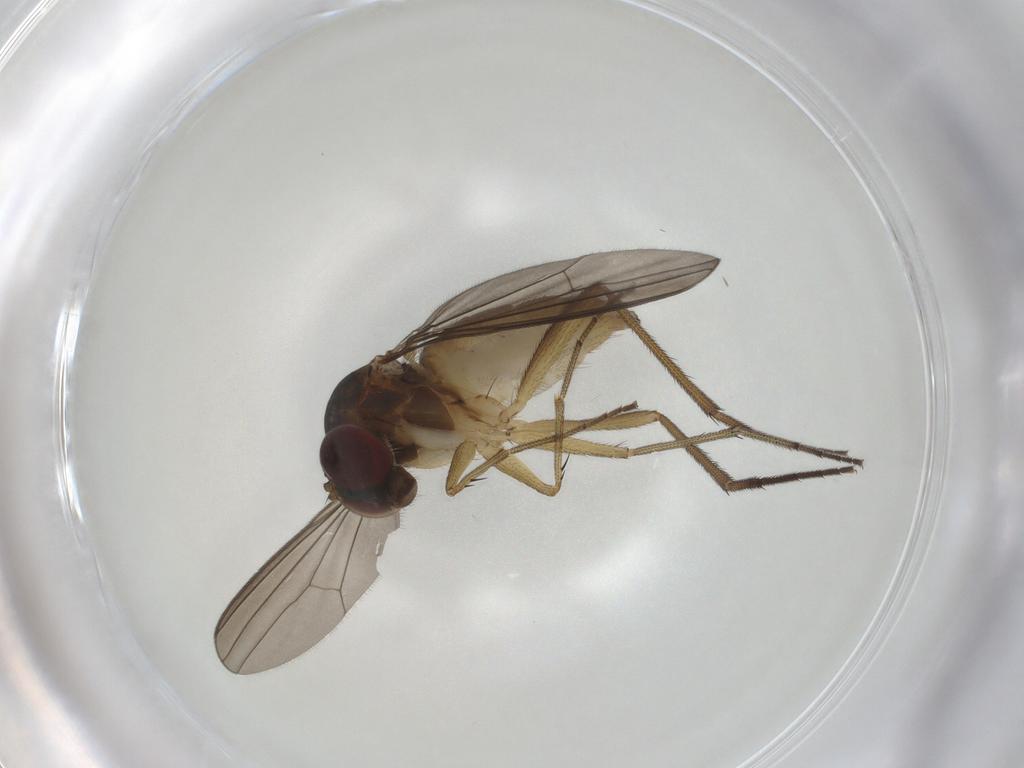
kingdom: Animalia
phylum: Arthropoda
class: Insecta
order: Diptera
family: Dolichopodidae
